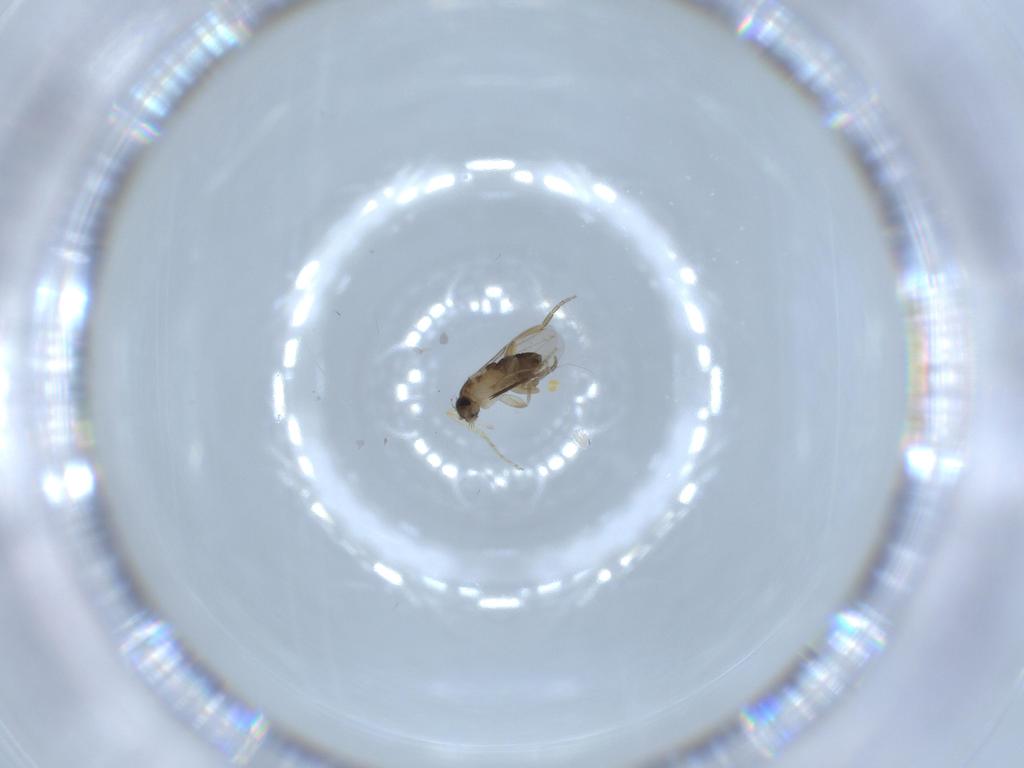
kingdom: Animalia
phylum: Arthropoda
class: Insecta
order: Diptera
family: Phoridae
